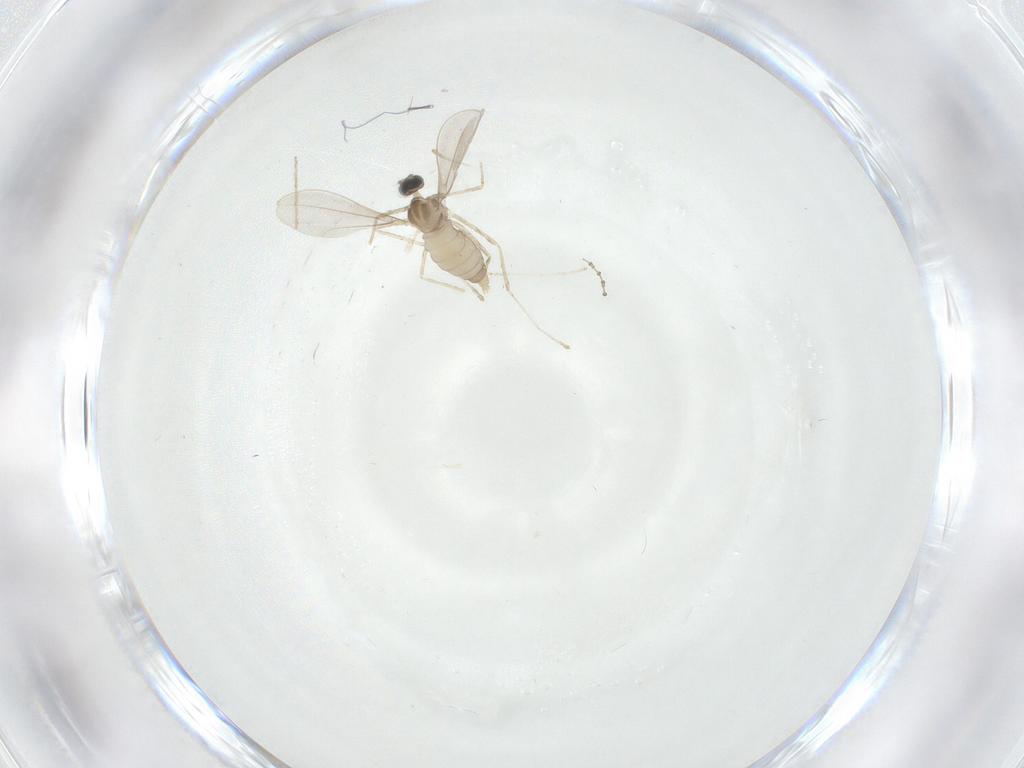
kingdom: Animalia
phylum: Arthropoda
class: Insecta
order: Diptera
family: Cecidomyiidae
